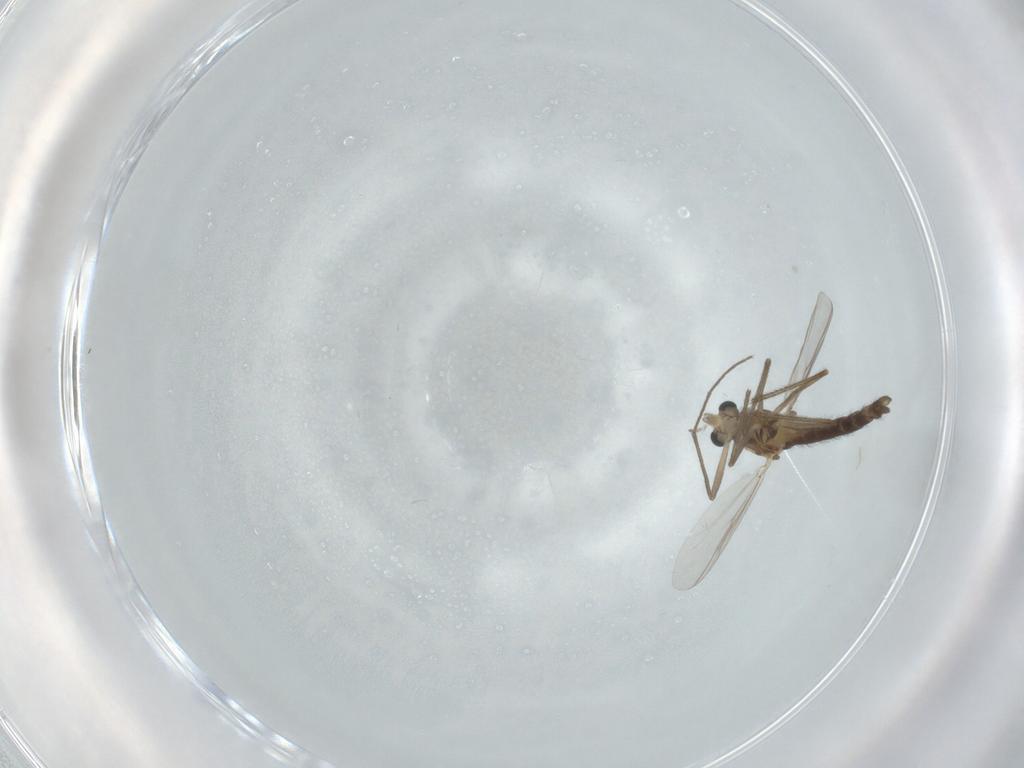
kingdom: Animalia
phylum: Arthropoda
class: Insecta
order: Diptera
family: Chironomidae
